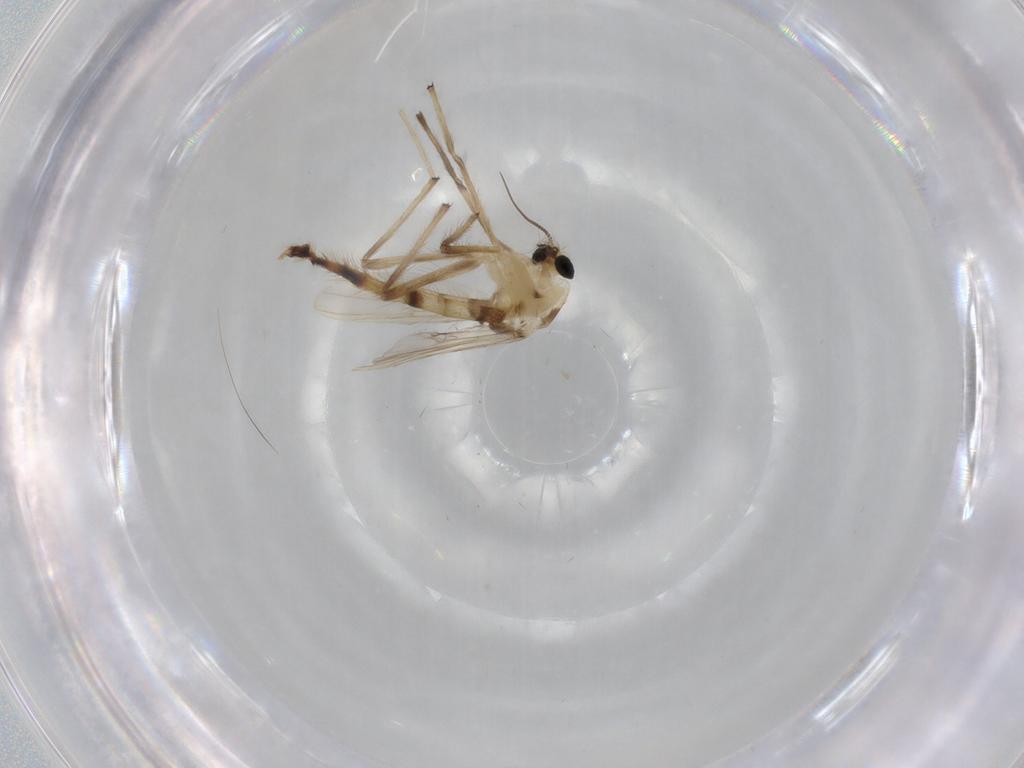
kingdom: Animalia
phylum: Arthropoda
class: Insecta
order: Diptera
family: Chironomidae
